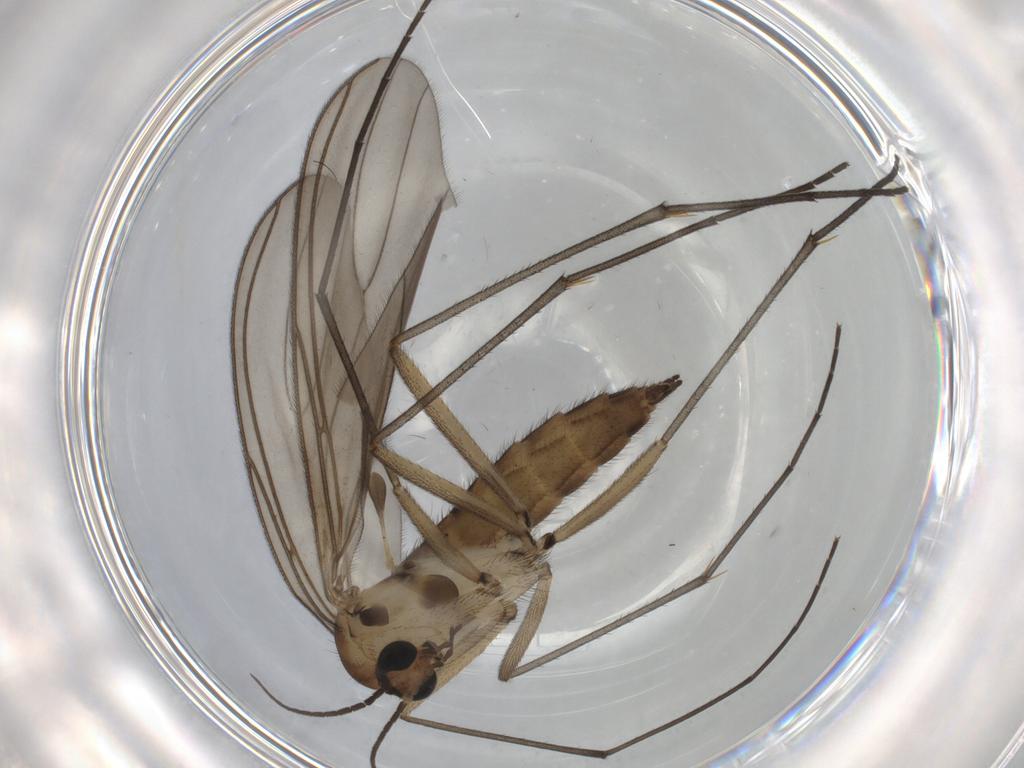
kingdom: Animalia
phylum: Arthropoda
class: Insecta
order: Diptera
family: Sciaridae
